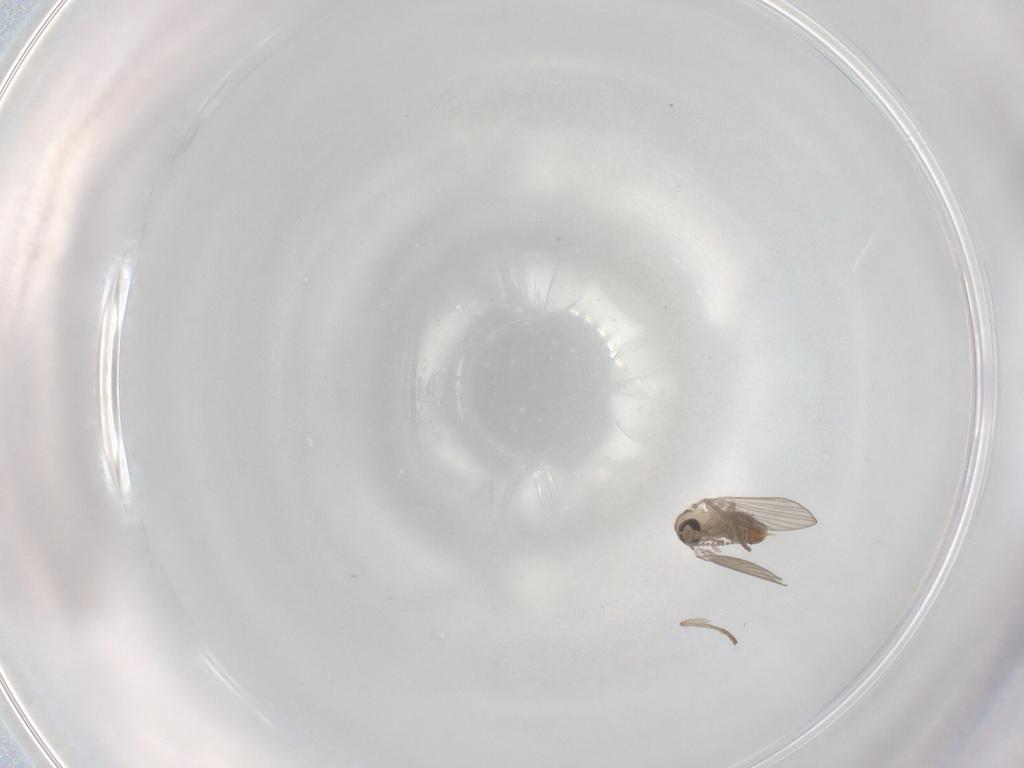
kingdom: Animalia
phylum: Arthropoda
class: Insecta
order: Diptera
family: Psychodidae
